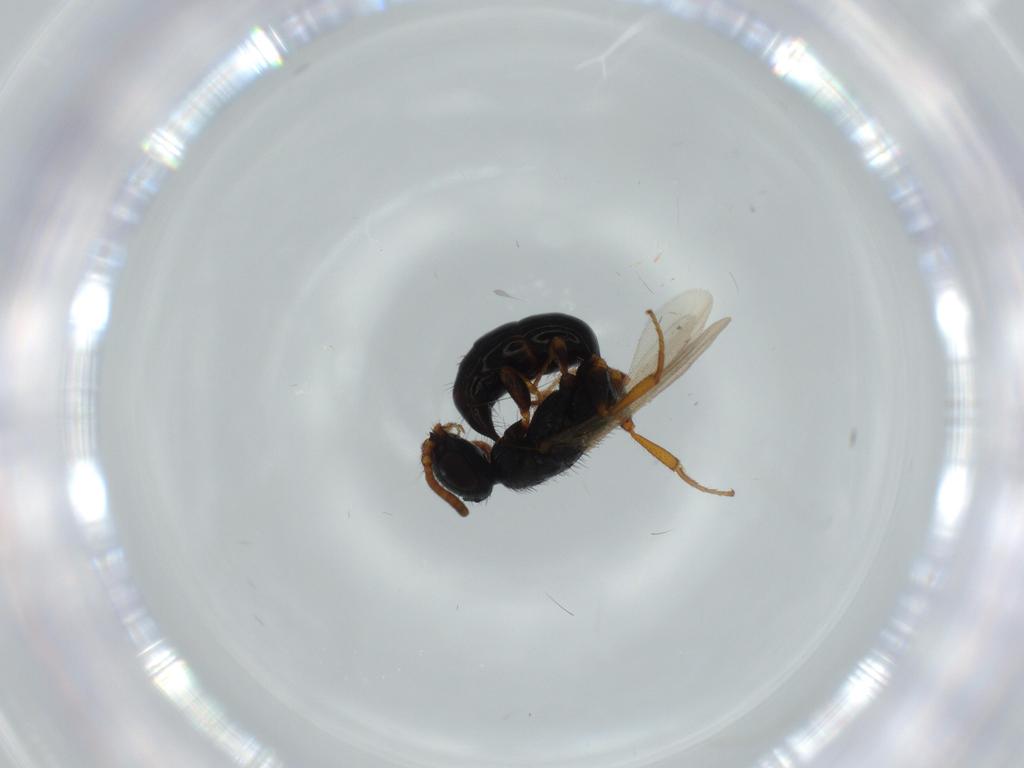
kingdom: Animalia
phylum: Arthropoda
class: Insecta
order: Hymenoptera
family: Bethylidae
